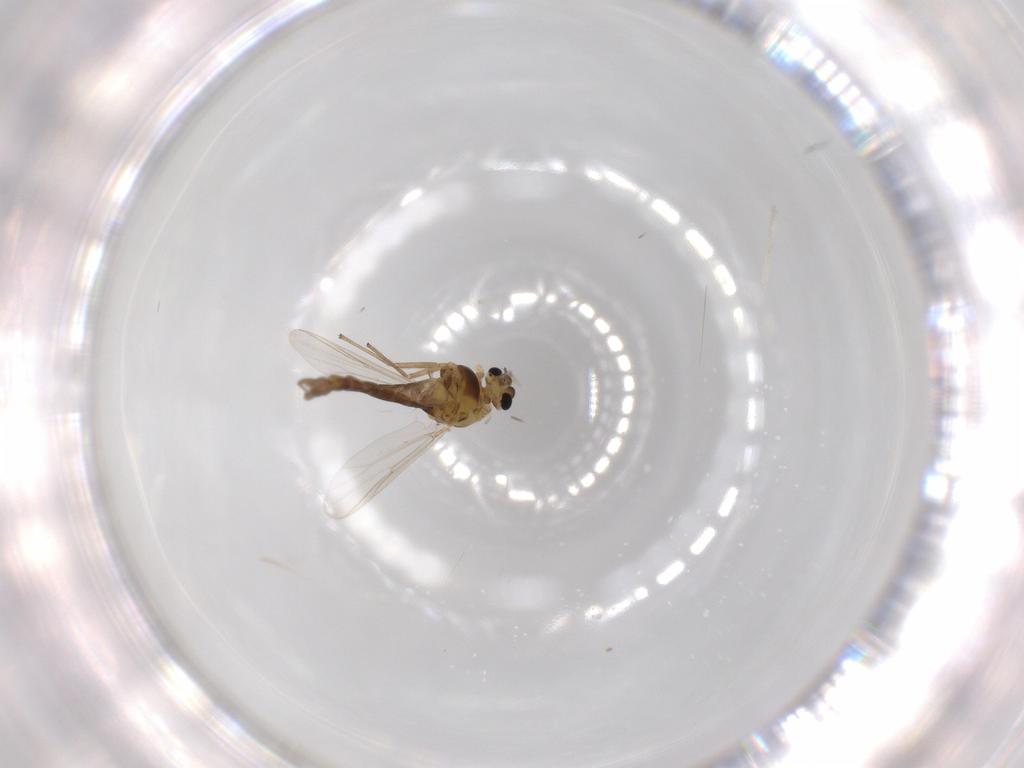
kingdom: Animalia
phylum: Arthropoda
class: Insecta
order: Diptera
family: Chironomidae
